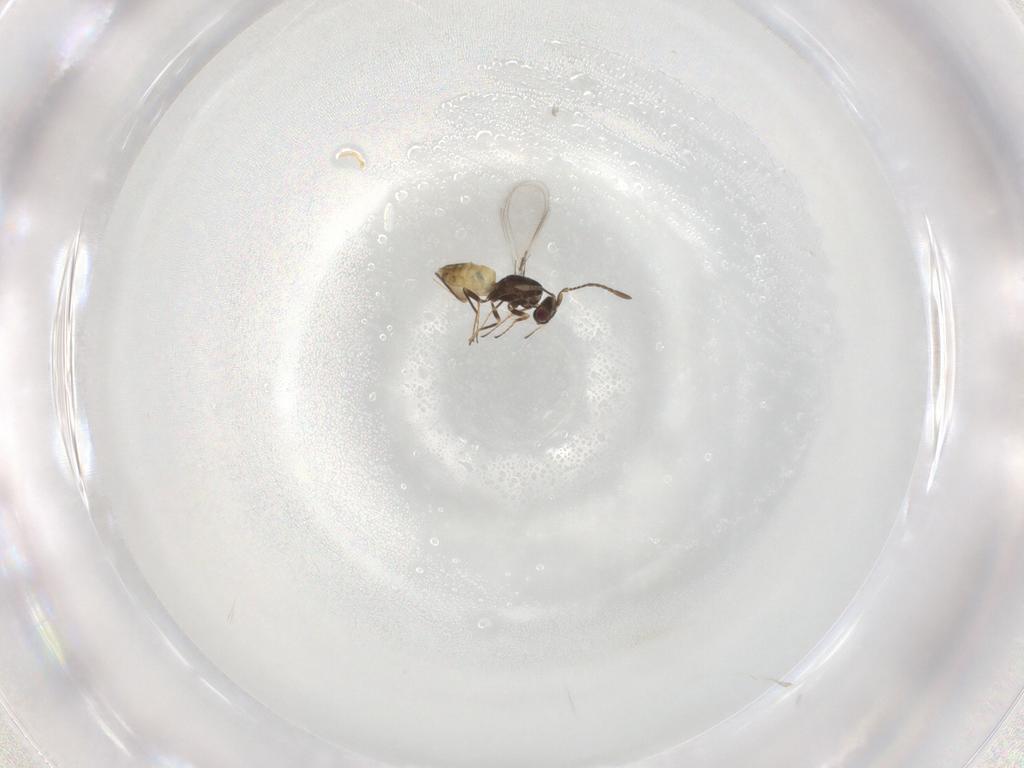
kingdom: Animalia
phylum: Arthropoda
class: Insecta
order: Hymenoptera
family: Mymaridae
